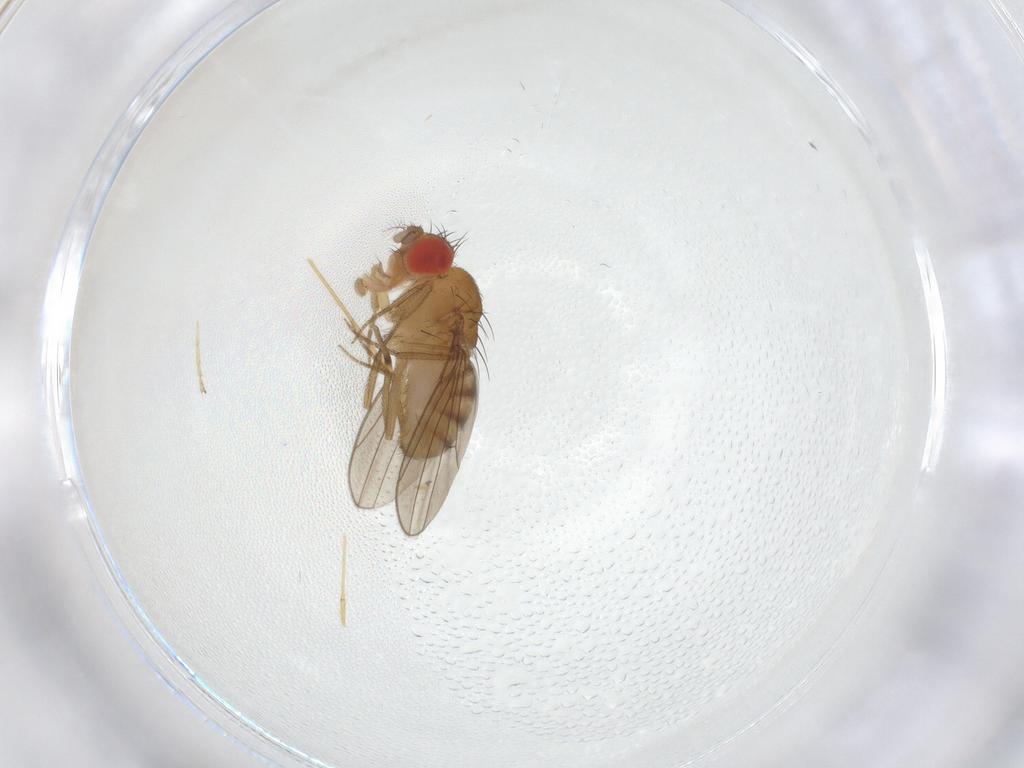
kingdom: Animalia
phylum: Arthropoda
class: Insecta
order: Diptera
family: Drosophilidae
